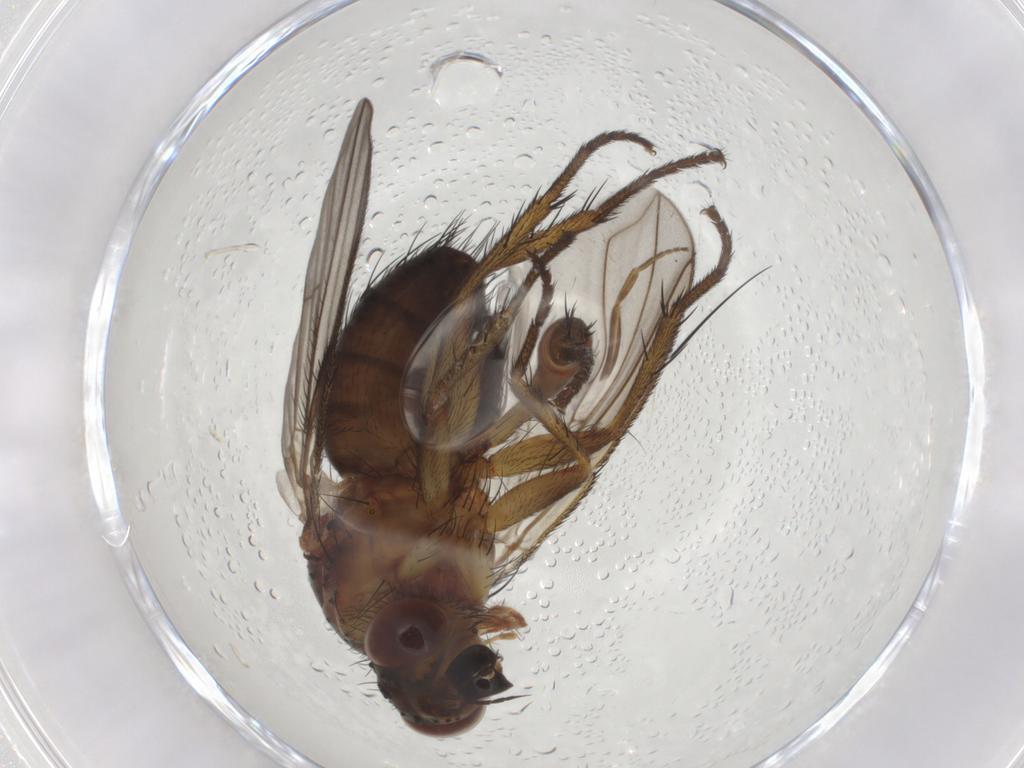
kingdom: Animalia
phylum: Arthropoda
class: Insecta
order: Diptera
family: Tachinidae
